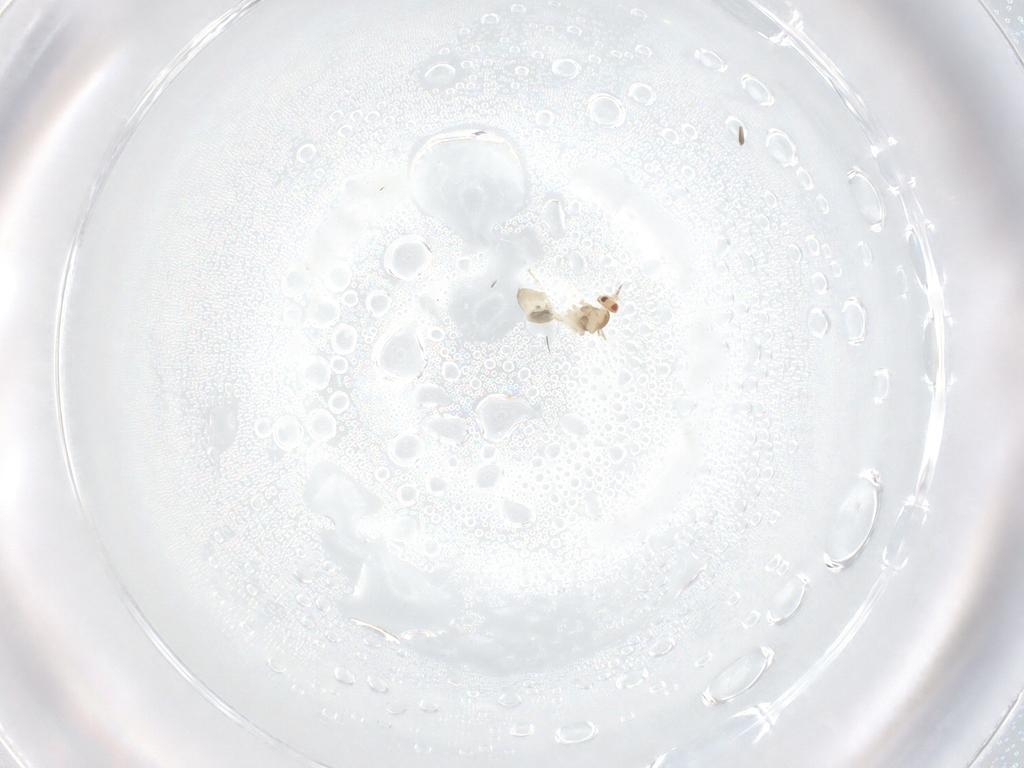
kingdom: Animalia
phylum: Arthropoda
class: Insecta
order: Diptera
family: Cecidomyiidae
